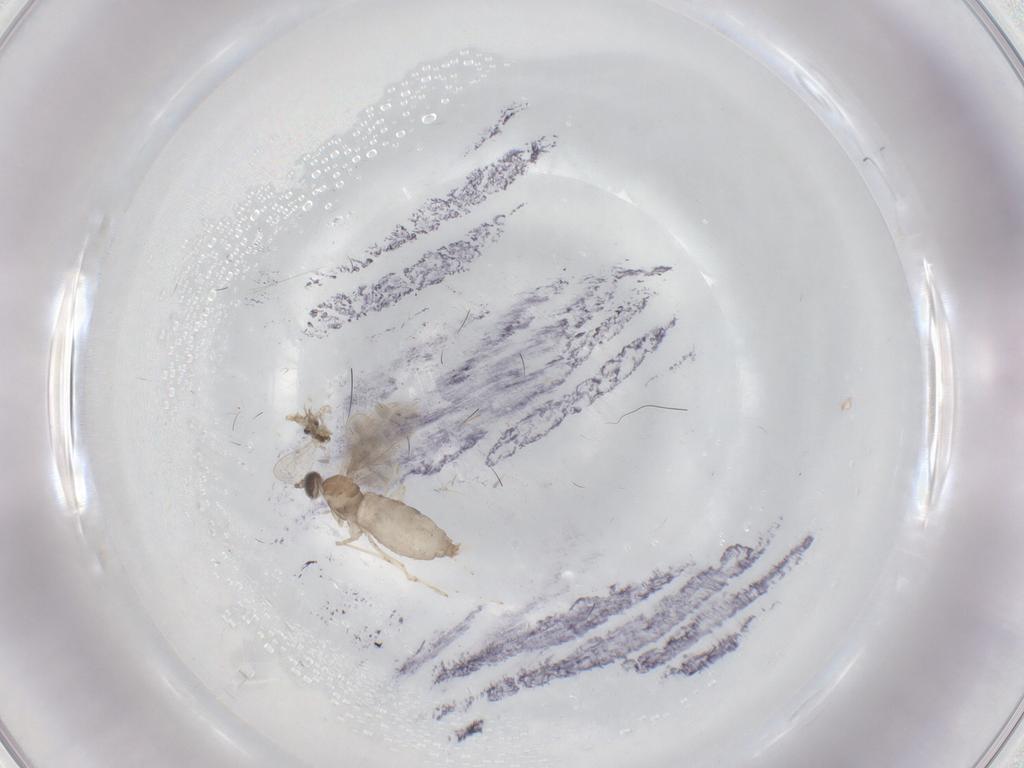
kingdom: Animalia
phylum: Arthropoda
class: Insecta
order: Diptera
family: Cecidomyiidae
